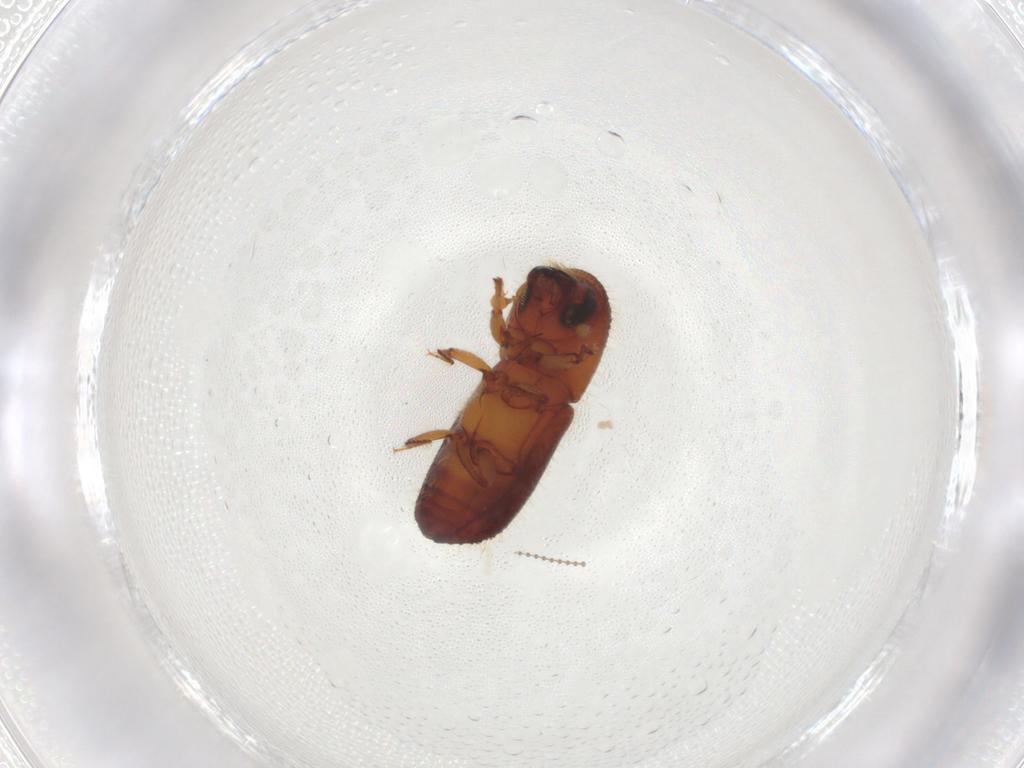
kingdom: Animalia
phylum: Arthropoda
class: Insecta
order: Coleoptera
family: Curculionidae
